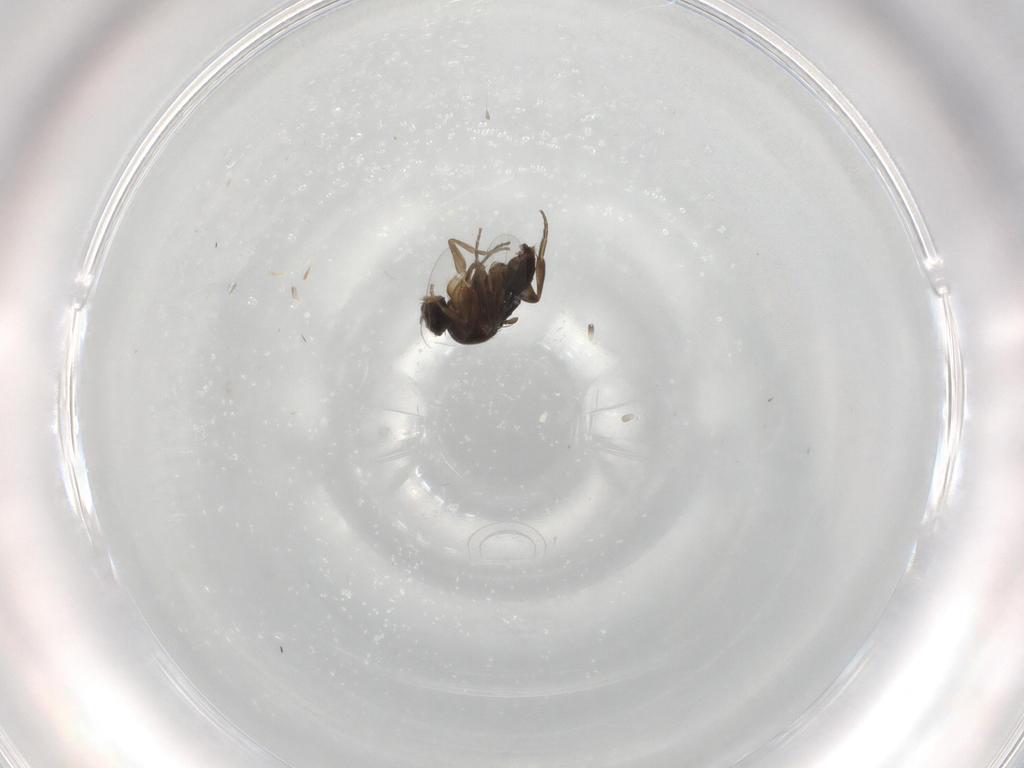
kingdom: Animalia
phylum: Arthropoda
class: Insecta
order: Diptera
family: Phoridae
